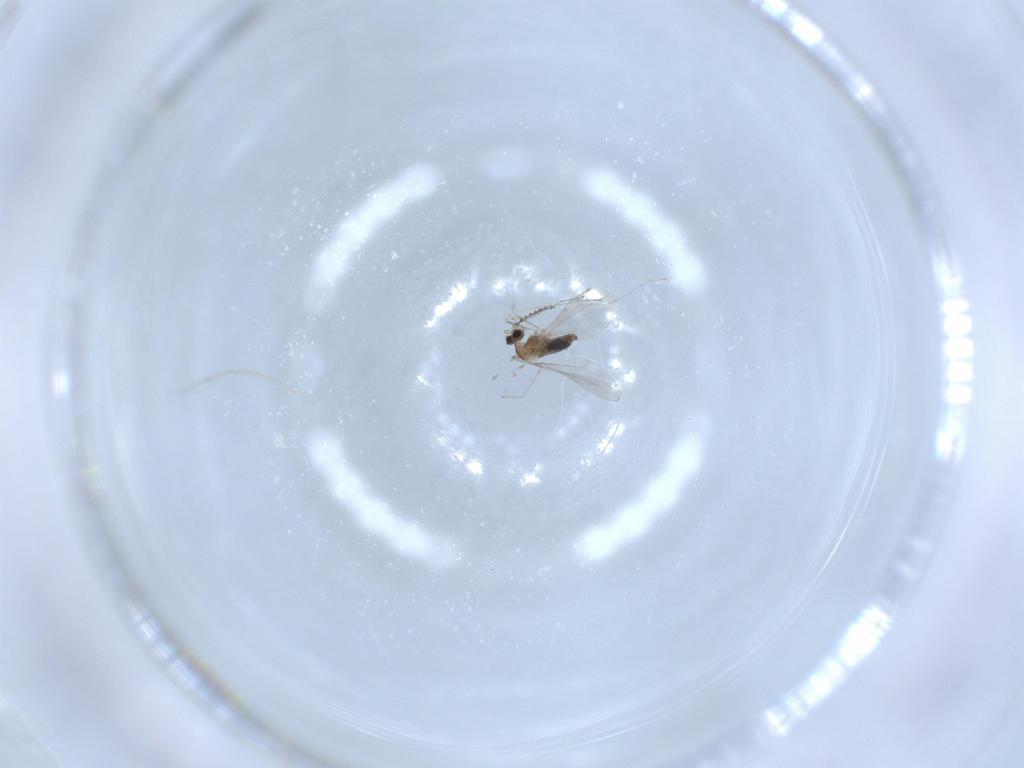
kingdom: Animalia
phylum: Arthropoda
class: Insecta
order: Diptera
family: Cecidomyiidae
